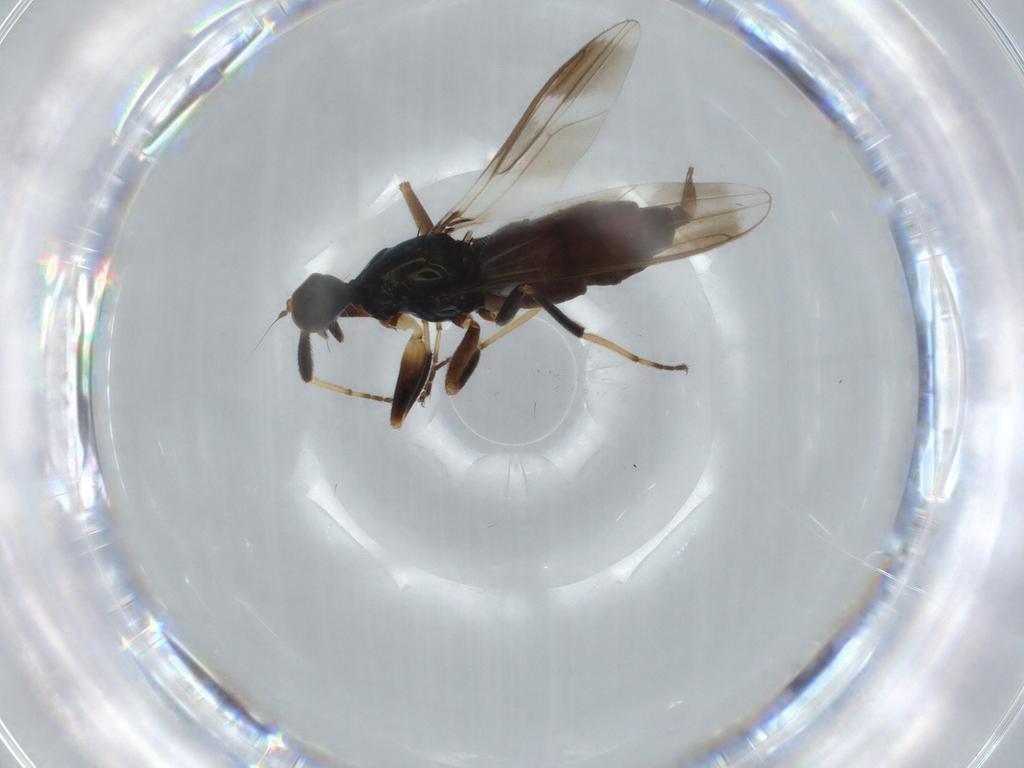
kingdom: Animalia
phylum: Arthropoda
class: Insecta
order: Diptera
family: Hybotidae
